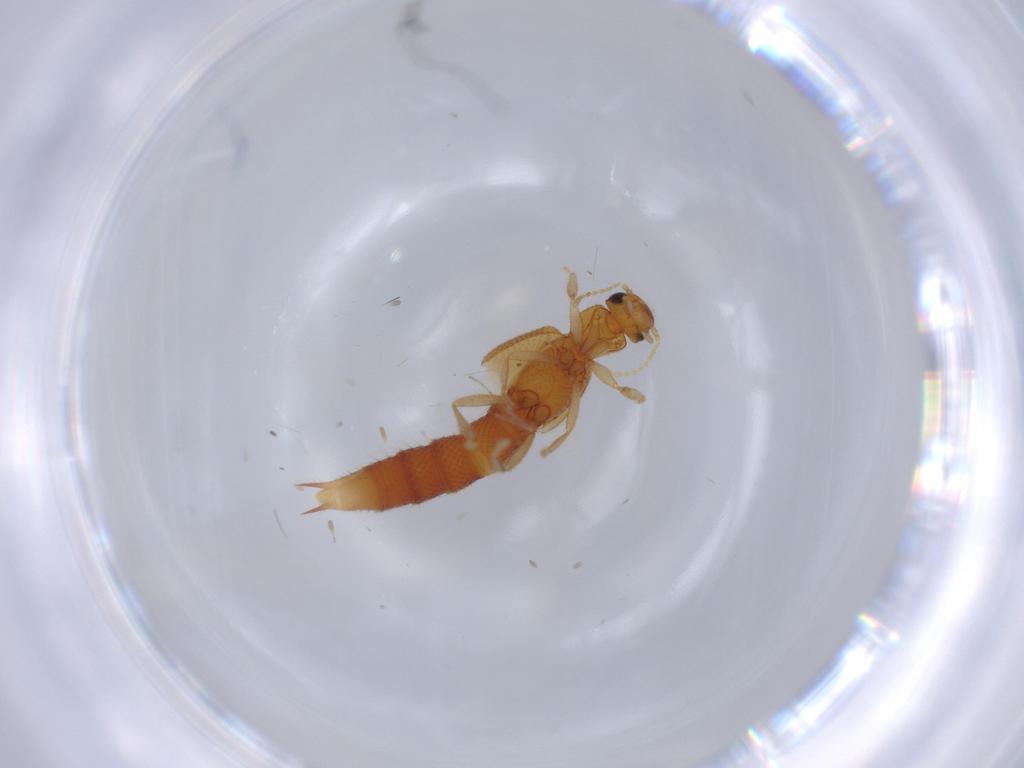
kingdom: Animalia
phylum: Arthropoda
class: Insecta
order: Coleoptera
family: Staphylinidae
